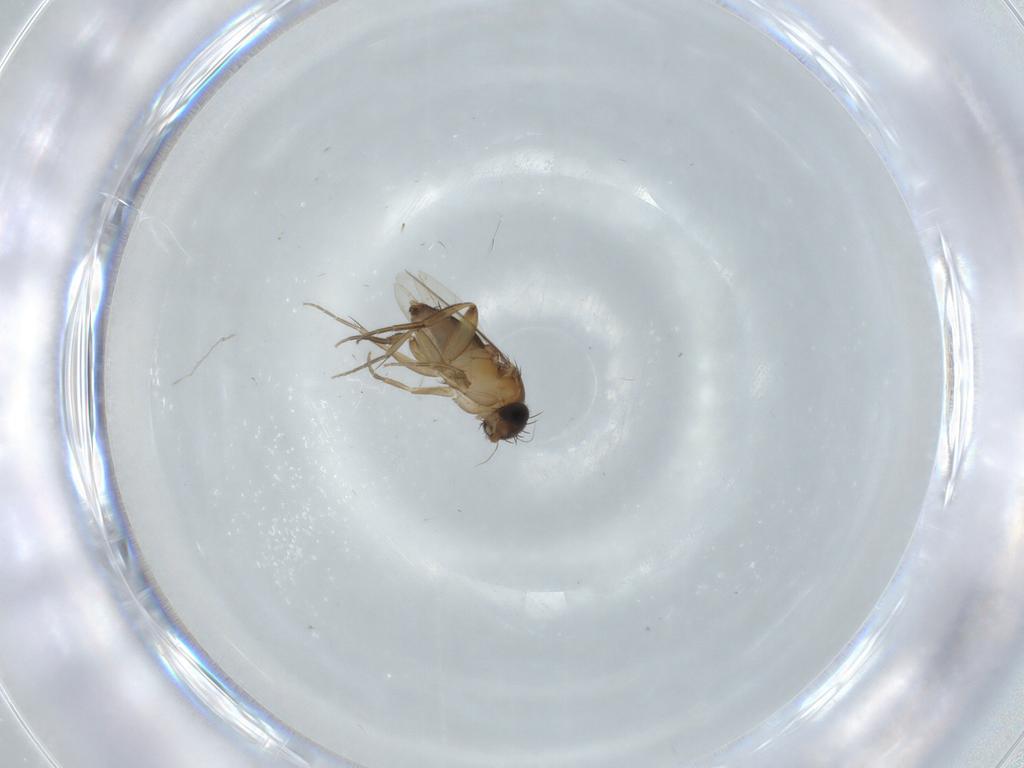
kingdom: Animalia
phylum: Arthropoda
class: Insecta
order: Diptera
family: Phoridae
